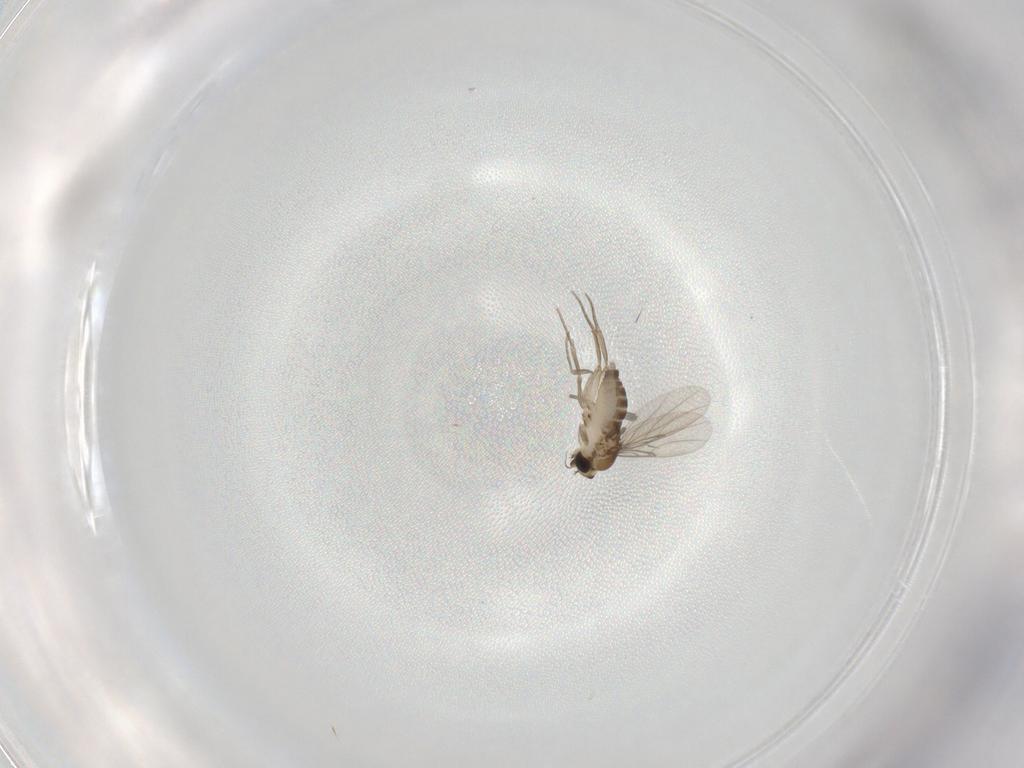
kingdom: Animalia
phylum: Arthropoda
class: Insecta
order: Diptera
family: Phoridae
